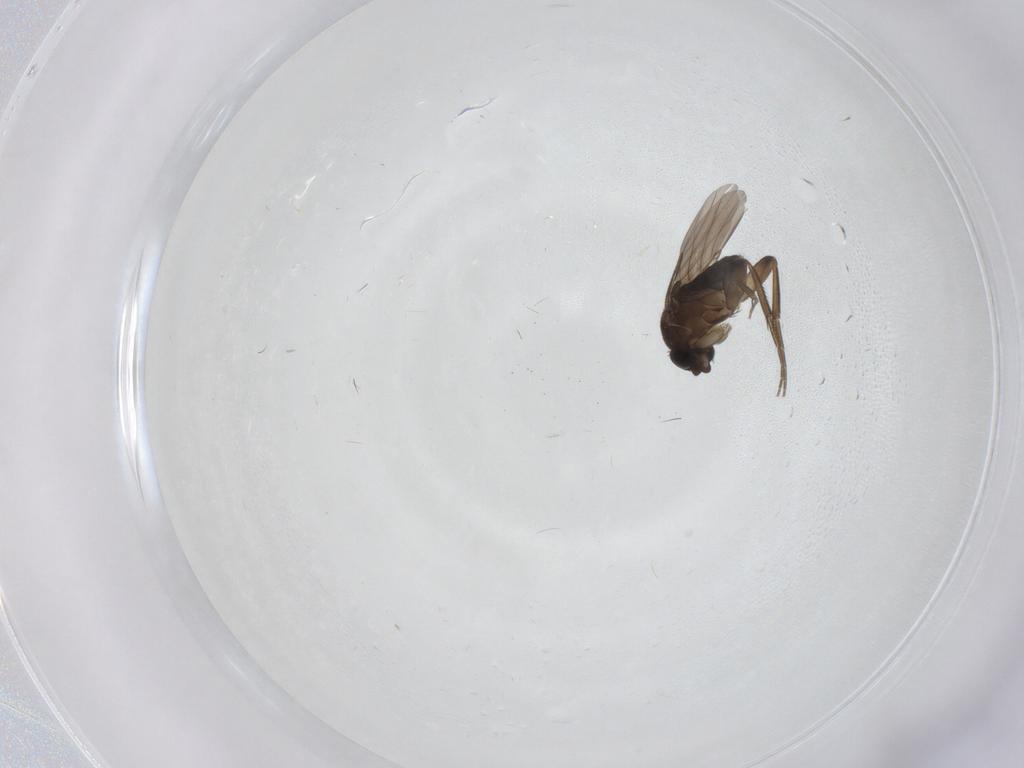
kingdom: Animalia
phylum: Arthropoda
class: Insecta
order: Diptera
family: Phoridae
